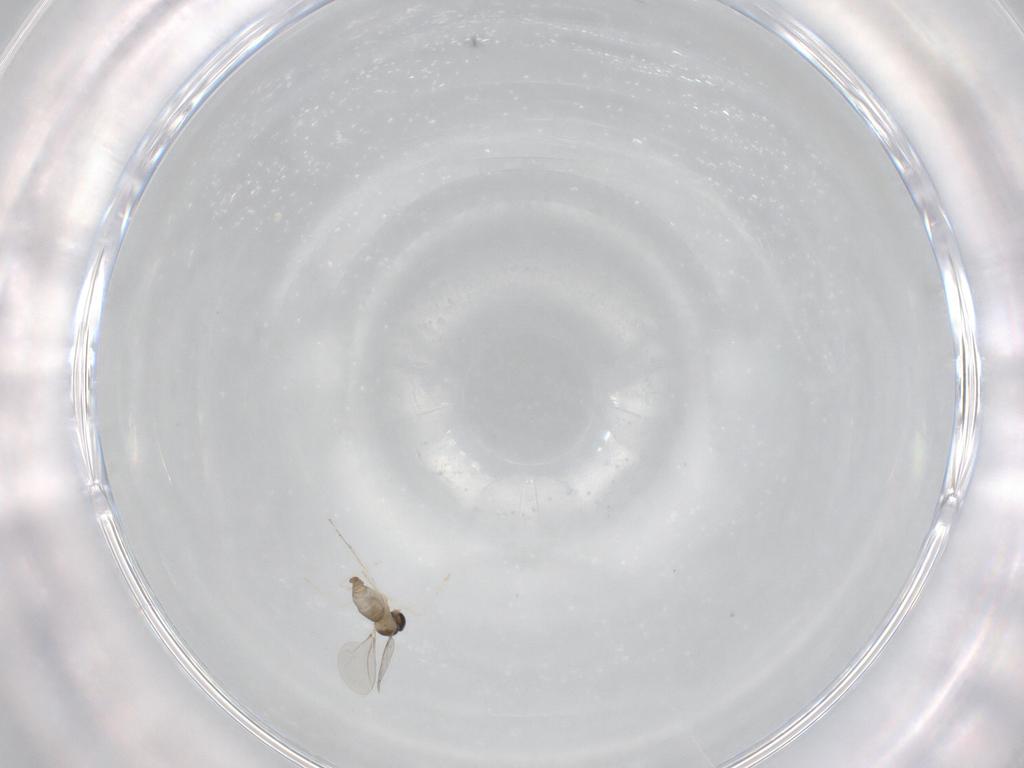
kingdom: Animalia
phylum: Arthropoda
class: Insecta
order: Diptera
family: Cecidomyiidae
